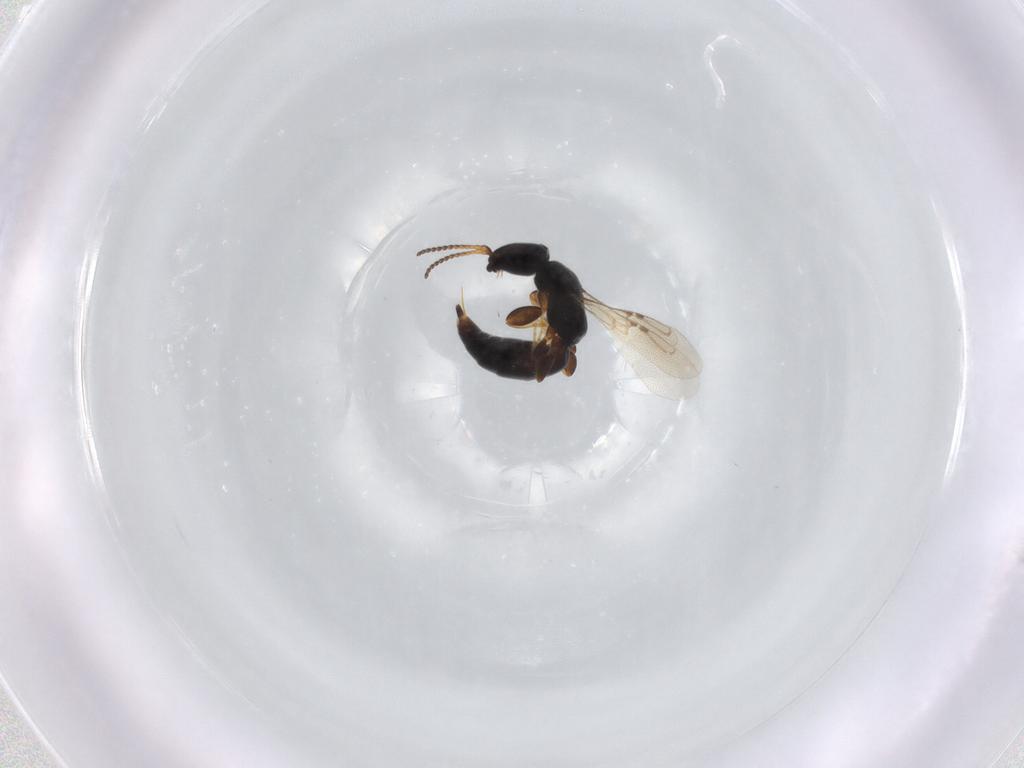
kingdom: Animalia
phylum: Arthropoda
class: Insecta
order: Hymenoptera
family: Bethylidae
